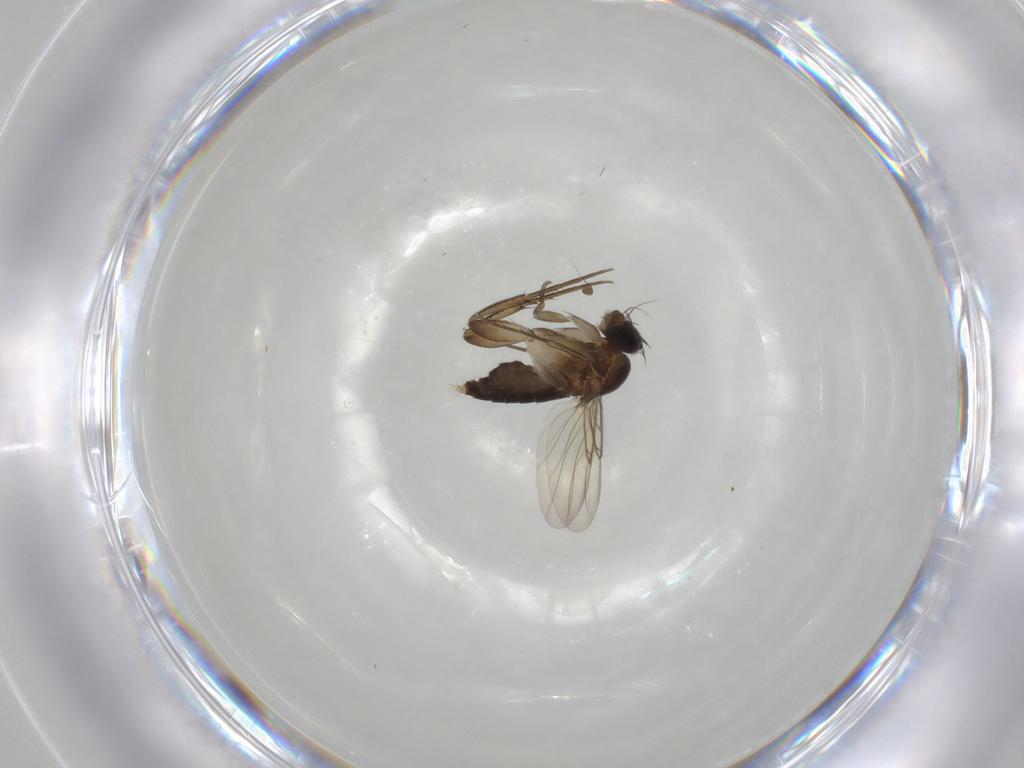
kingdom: Animalia
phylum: Arthropoda
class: Insecta
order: Diptera
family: Phoridae
